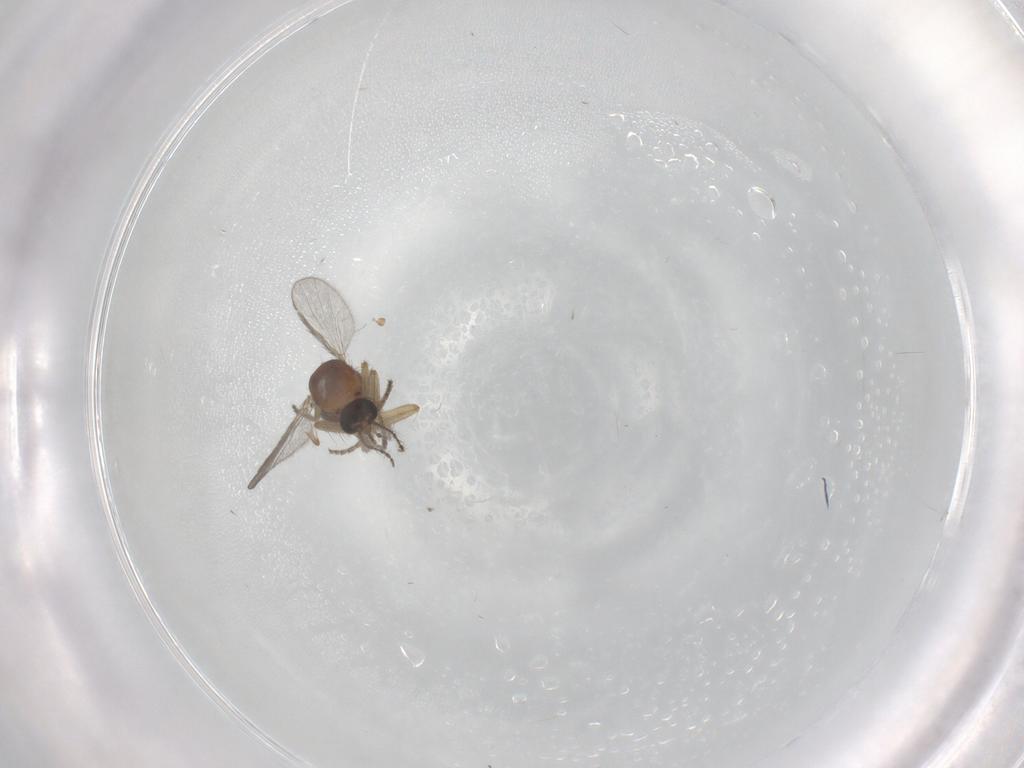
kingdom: Animalia
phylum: Arthropoda
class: Insecta
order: Diptera
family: Ceratopogonidae
